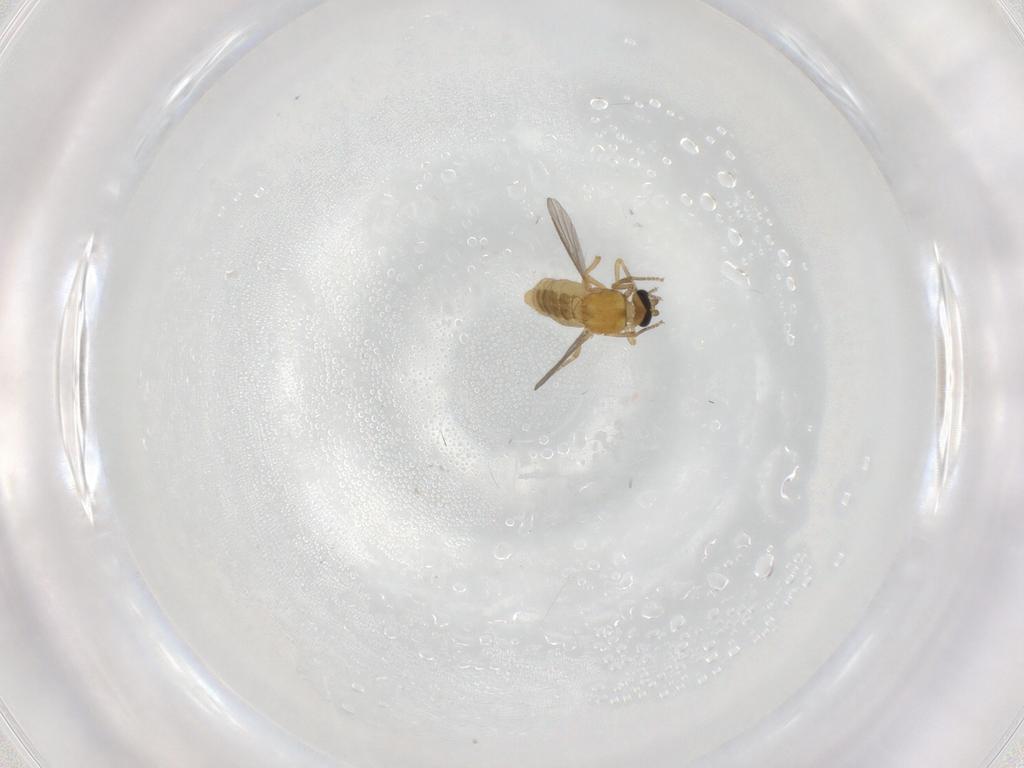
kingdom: Animalia
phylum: Arthropoda
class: Insecta
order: Diptera
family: Ceratopogonidae
